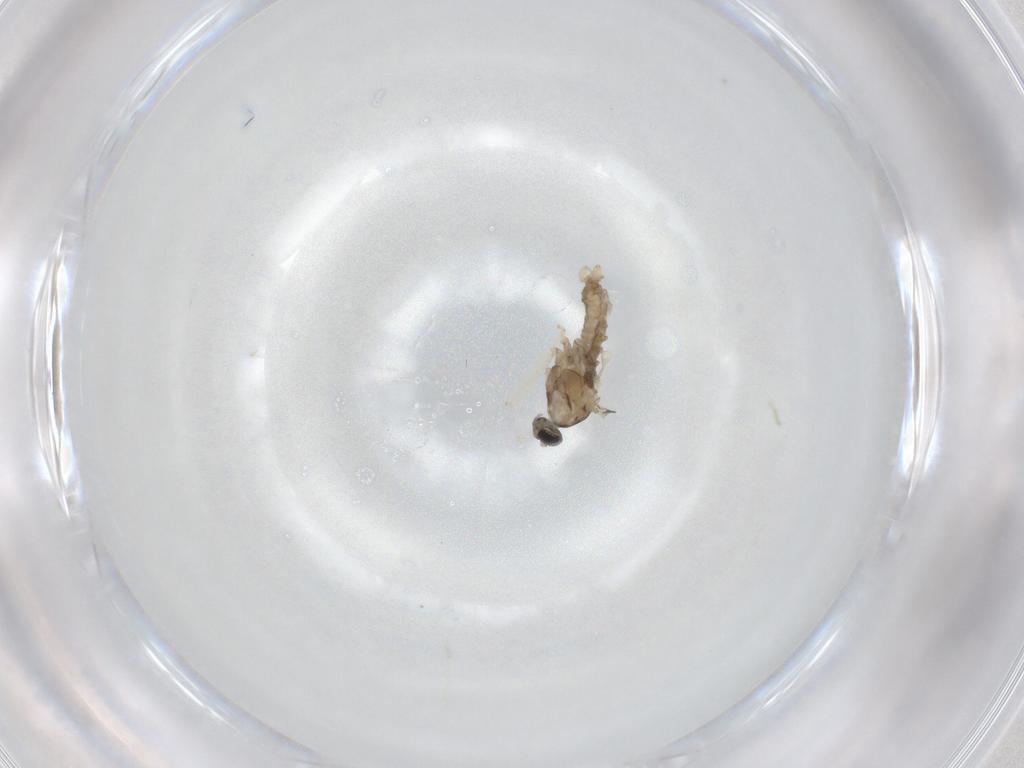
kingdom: Animalia
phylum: Arthropoda
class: Insecta
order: Diptera
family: Cecidomyiidae
